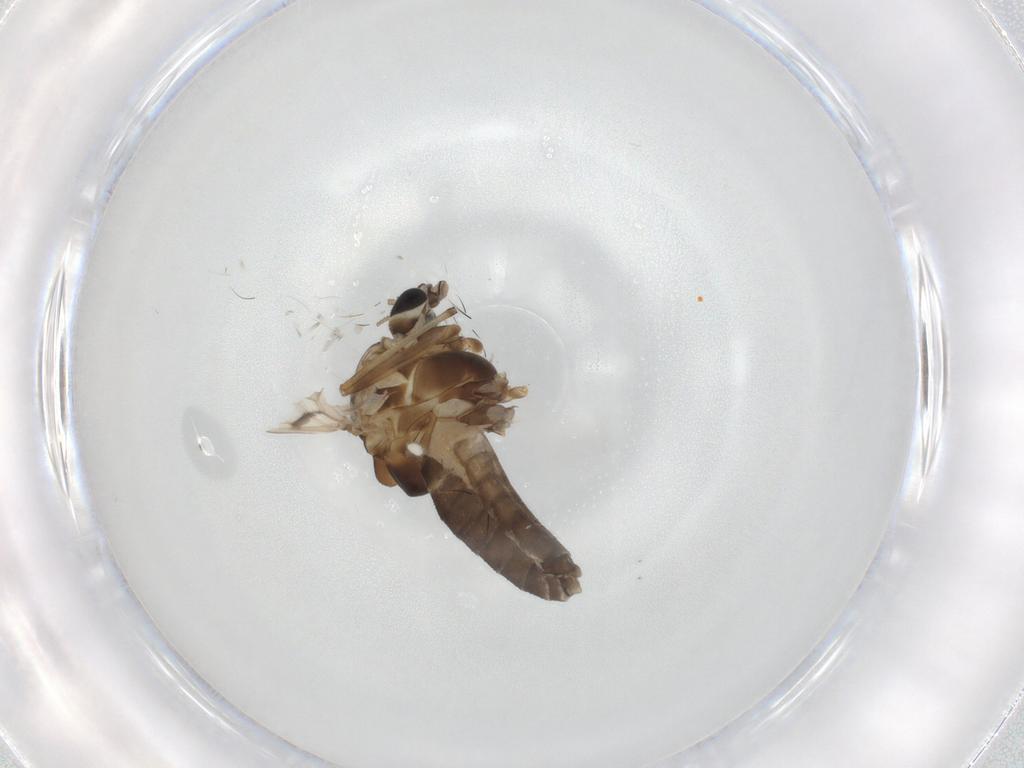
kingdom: Animalia
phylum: Arthropoda
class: Insecta
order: Diptera
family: Chironomidae
